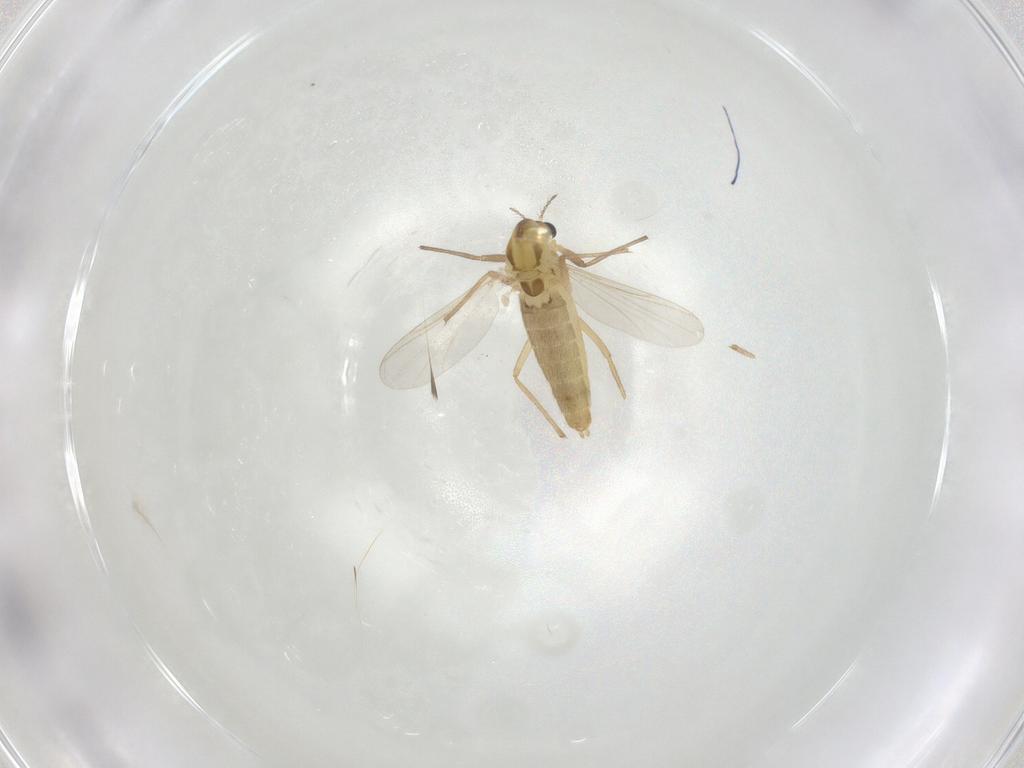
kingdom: Animalia
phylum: Arthropoda
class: Insecta
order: Diptera
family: Chironomidae
